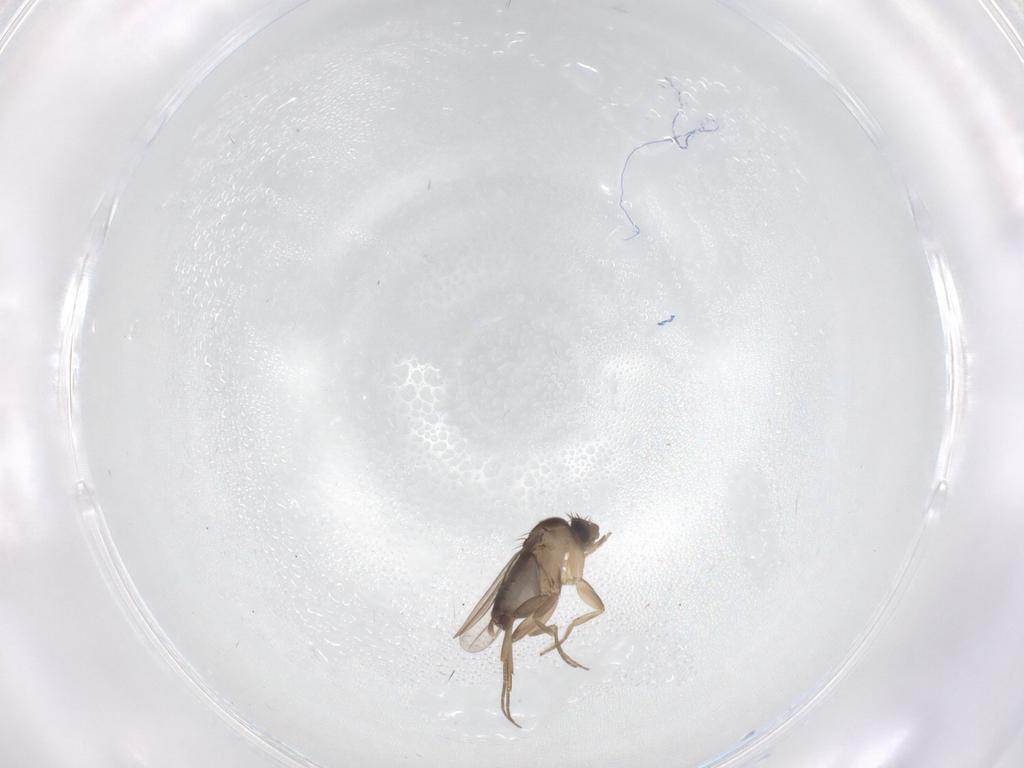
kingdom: Animalia
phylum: Arthropoda
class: Insecta
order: Diptera
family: Phoridae
